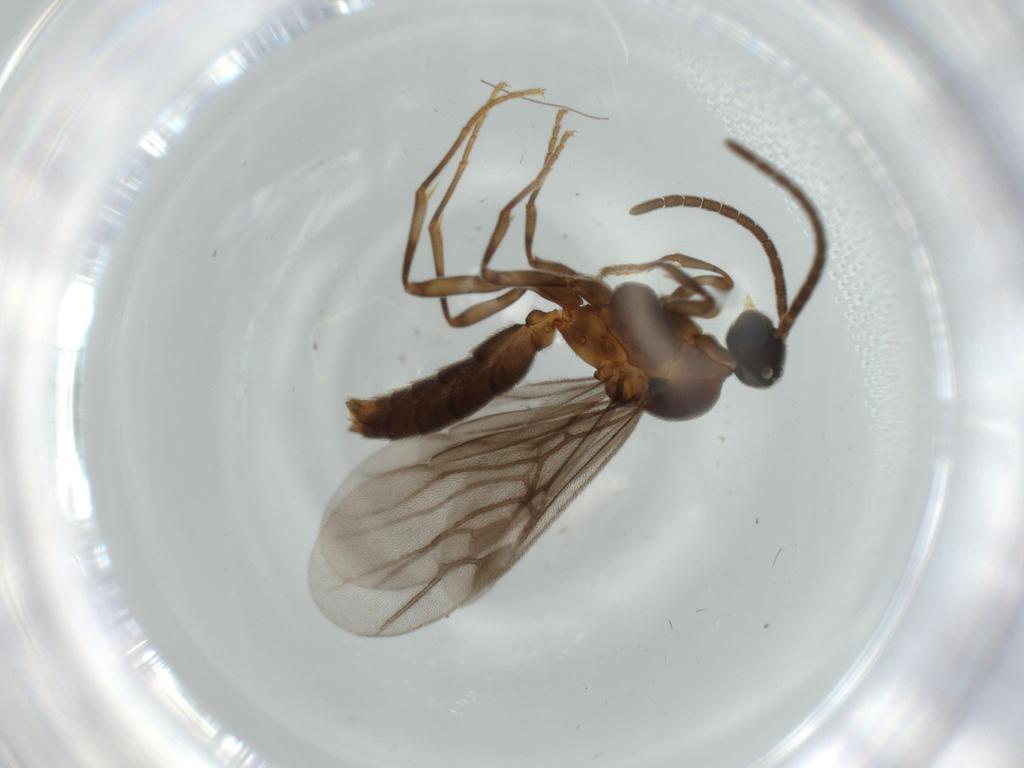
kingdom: Animalia
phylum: Arthropoda
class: Insecta
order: Hymenoptera
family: Formicidae
